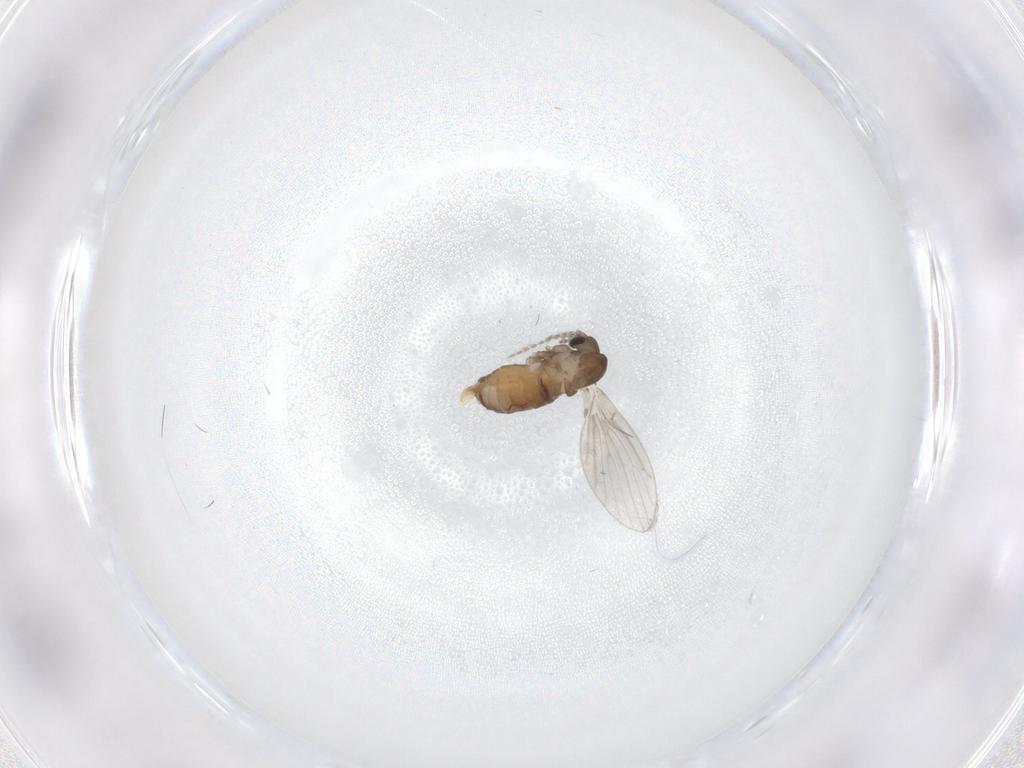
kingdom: Animalia
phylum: Arthropoda
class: Insecta
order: Diptera
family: Psychodidae
